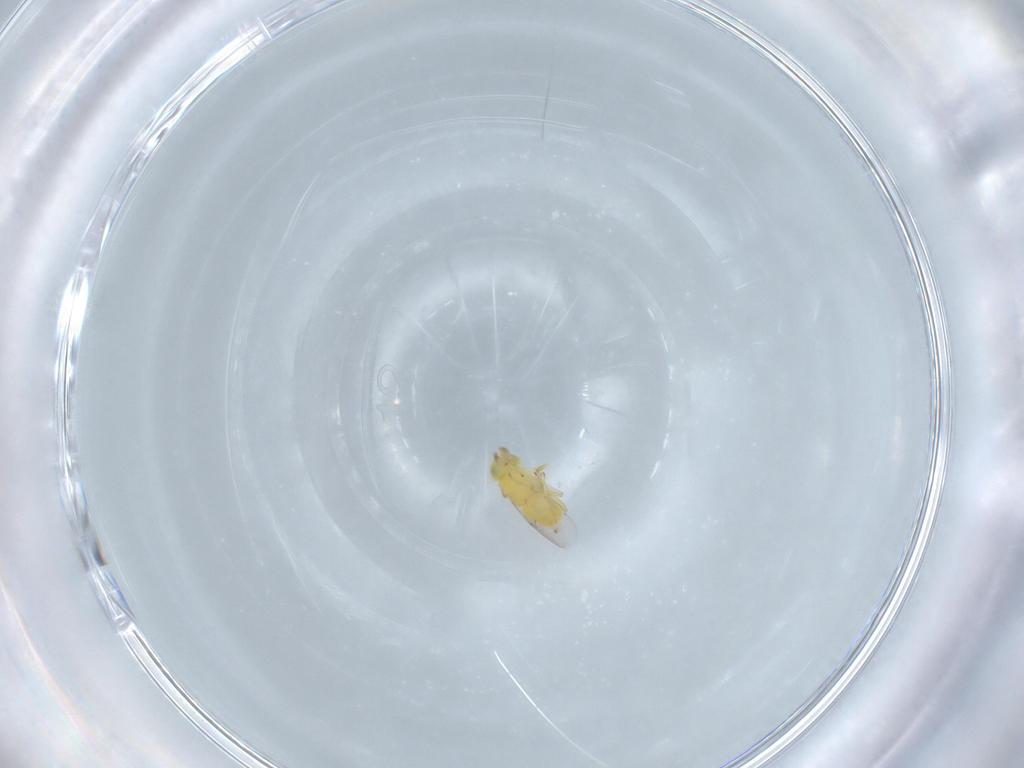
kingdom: Animalia
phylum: Arthropoda
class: Insecta
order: Hymenoptera
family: Encyrtidae
